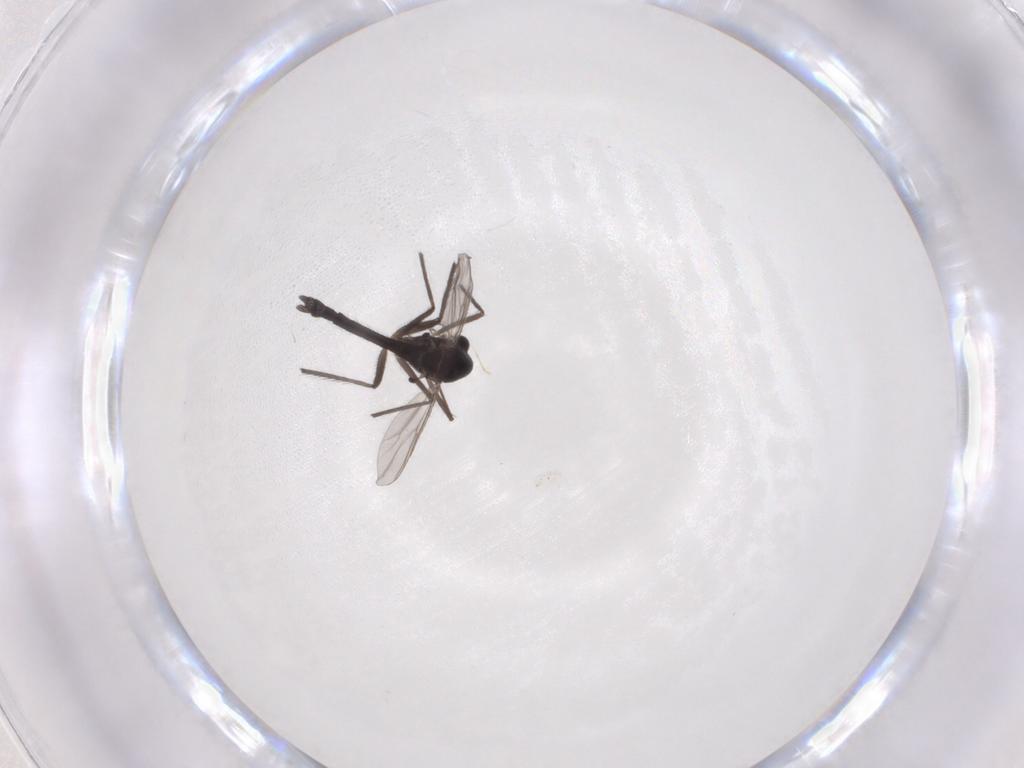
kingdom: Animalia
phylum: Arthropoda
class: Insecta
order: Diptera
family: Chironomidae
